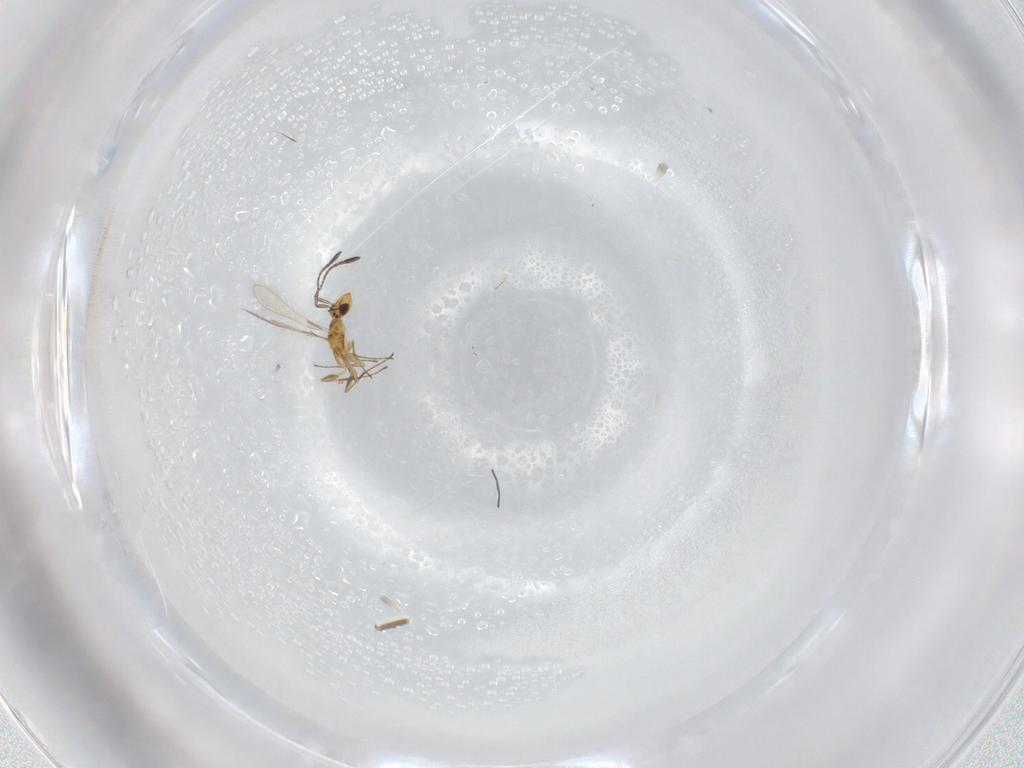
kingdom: Animalia
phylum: Arthropoda
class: Insecta
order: Hymenoptera
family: Mymaridae
